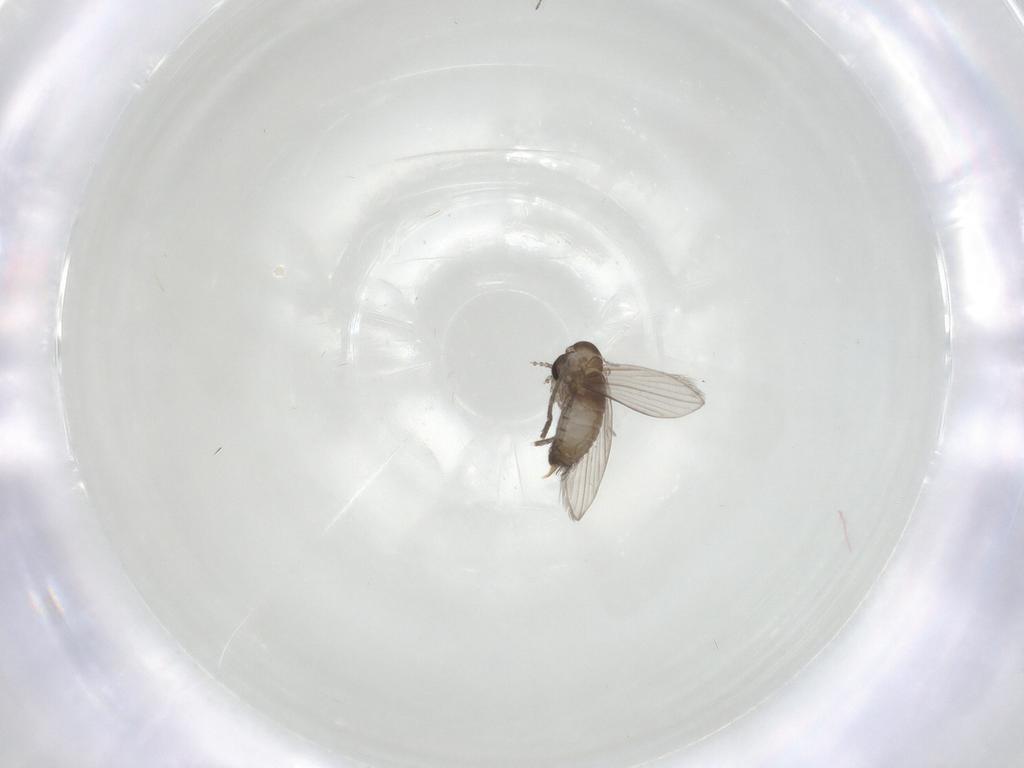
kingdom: Animalia
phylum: Arthropoda
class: Insecta
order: Diptera
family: Psychodidae
